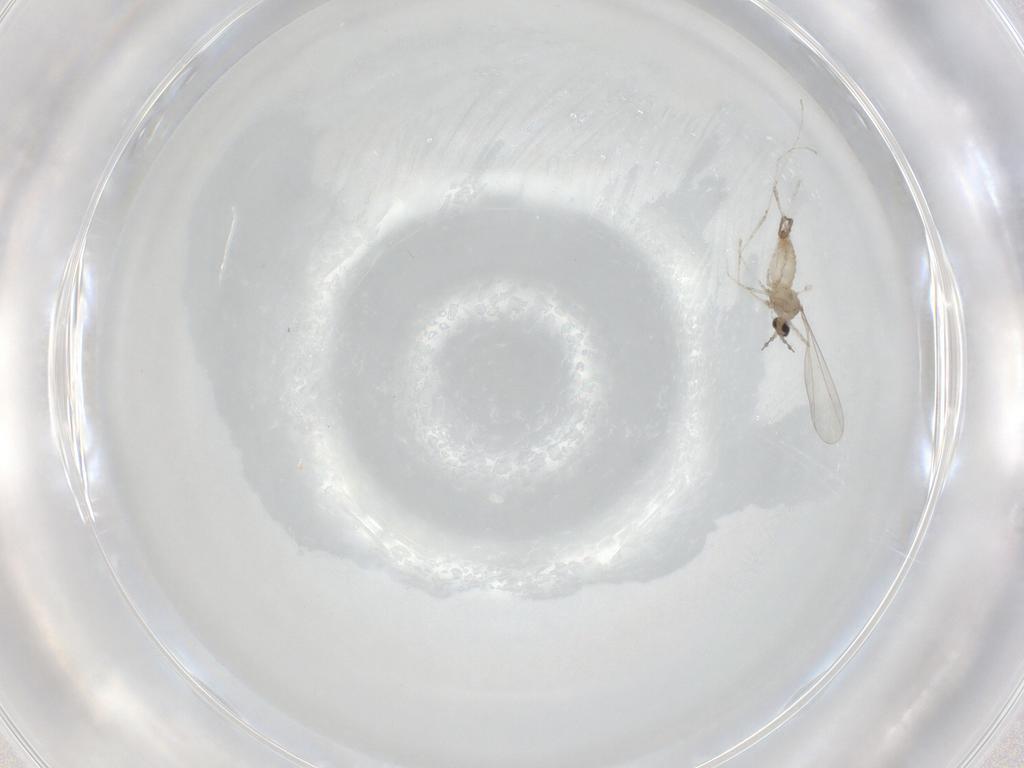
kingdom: Animalia
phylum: Arthropoda
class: Insecta
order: Diptera
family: Cecidomyiidae
